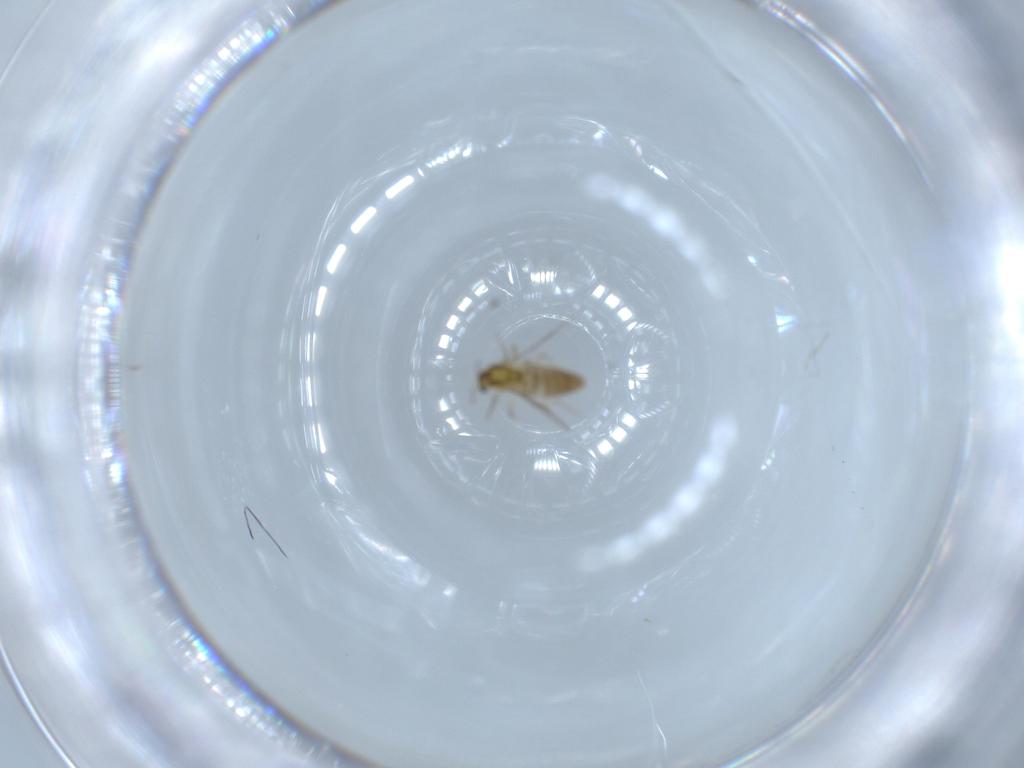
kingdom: Animalia
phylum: Arthropoda
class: Insecta
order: Diptera
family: Chironomidae
